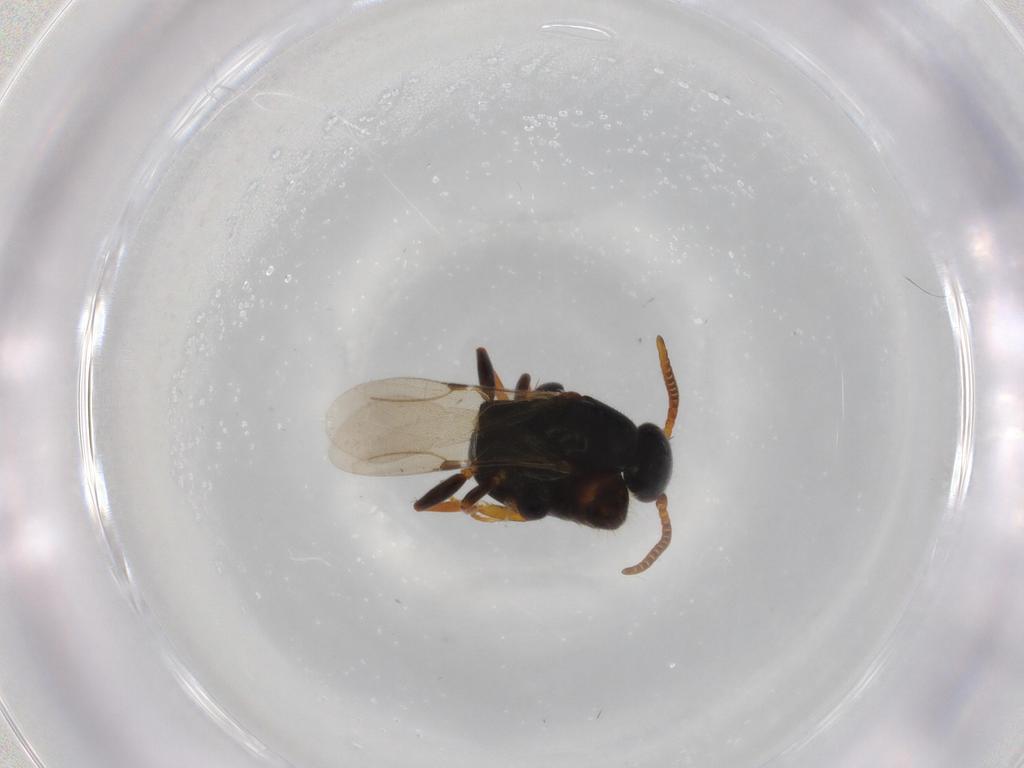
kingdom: Animalia
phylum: Arthropoda
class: Insecta
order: Hymenoptera
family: Bethylidae
